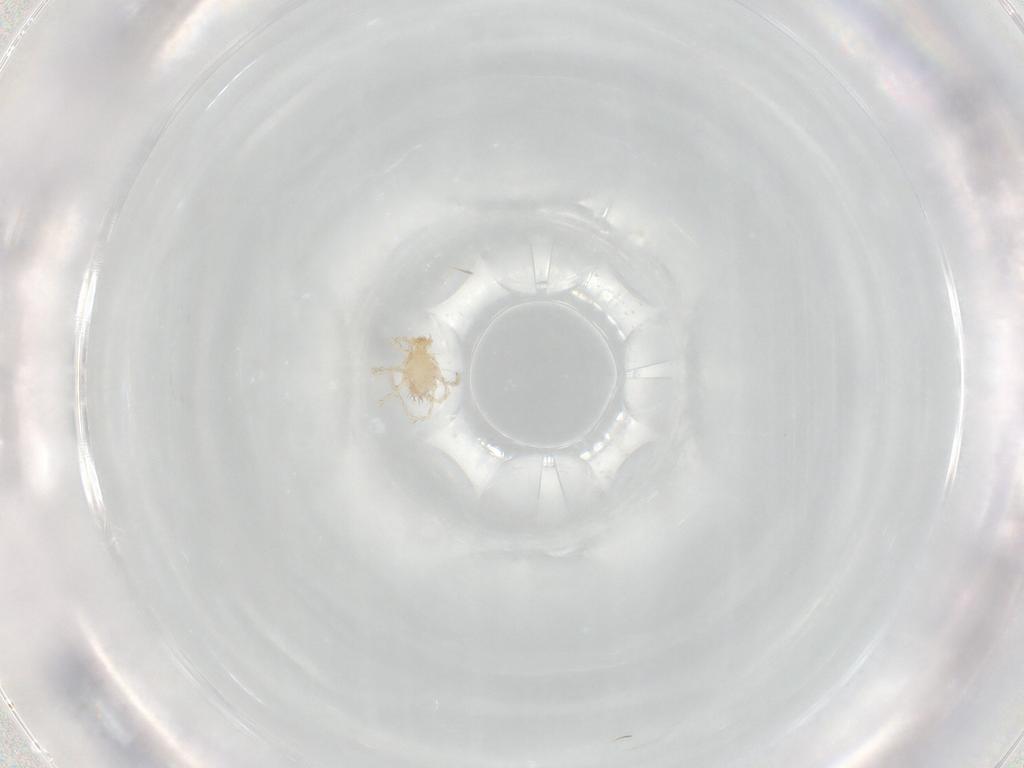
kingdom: Animalia
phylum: Arthropoda
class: Arachnida
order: Trombidiformes
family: Erythraeidae
